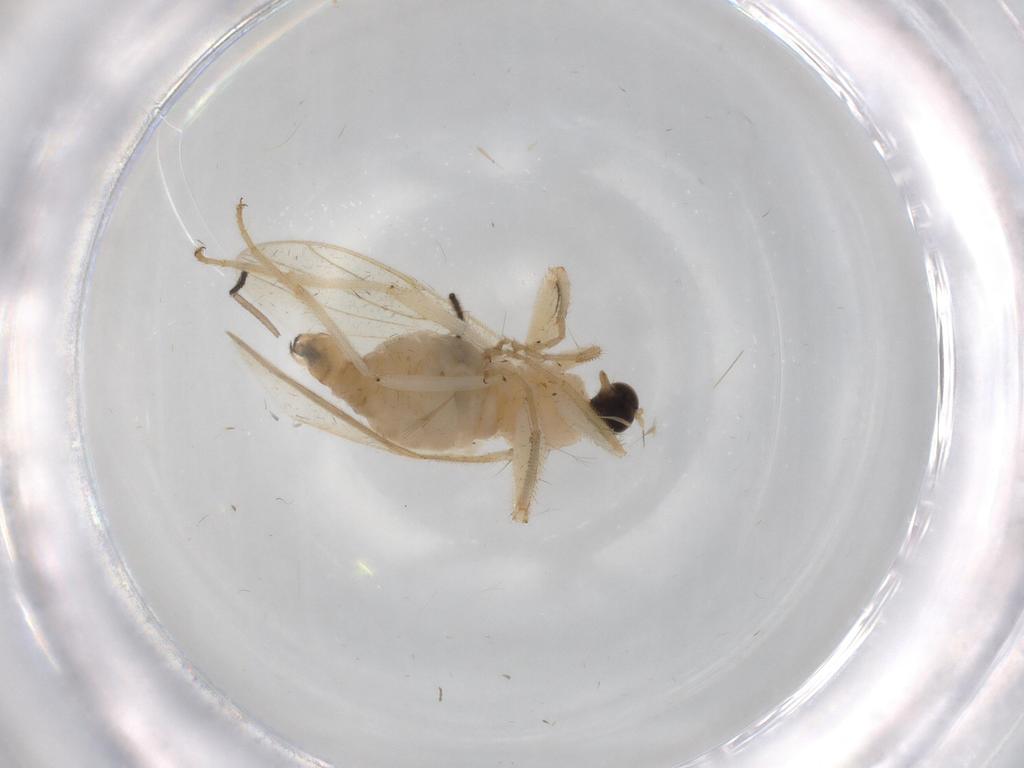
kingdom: Animalia
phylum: Arthropoda
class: Insecta
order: Diptera
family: Hybotidae
